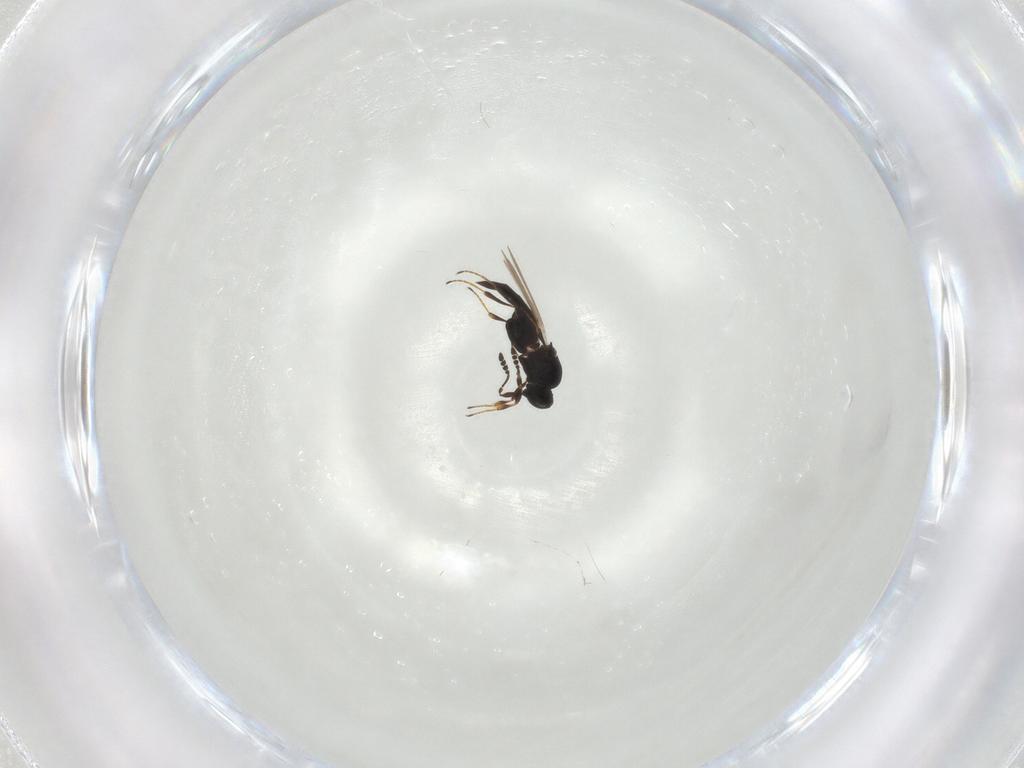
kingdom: Animalia
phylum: Arthropoda
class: Insecta
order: Hymenoptera
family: Platygastridae
